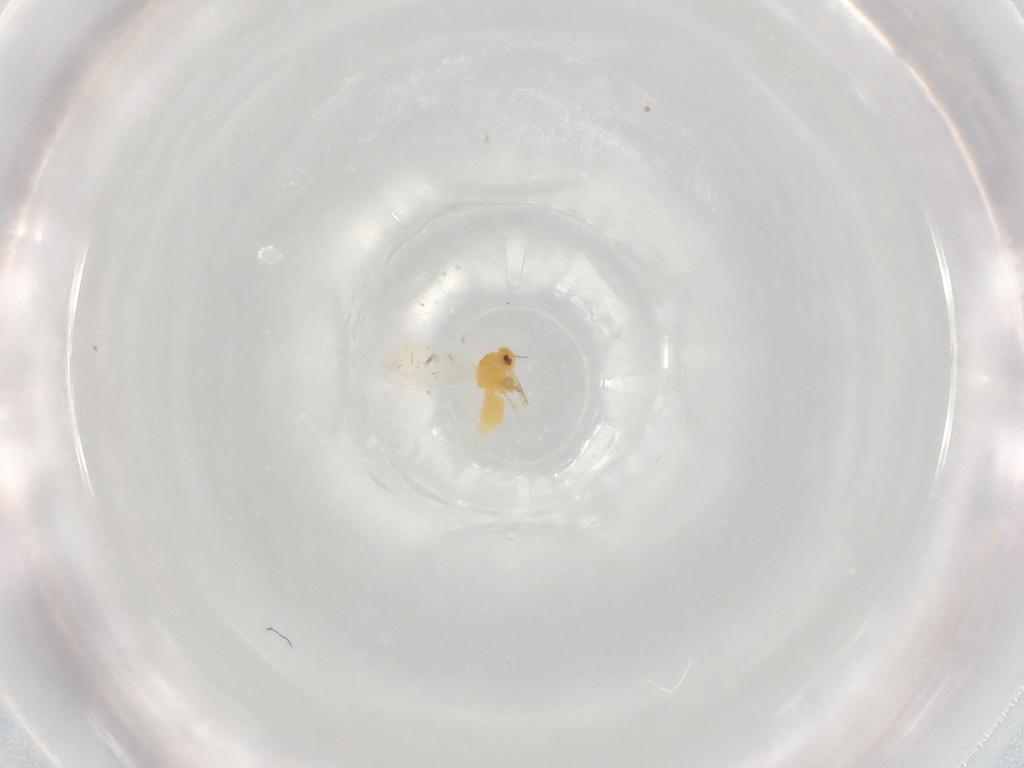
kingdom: Animalia
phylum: Arthropoda
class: Insecta
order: Hemiptera
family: Aleyrodidae
